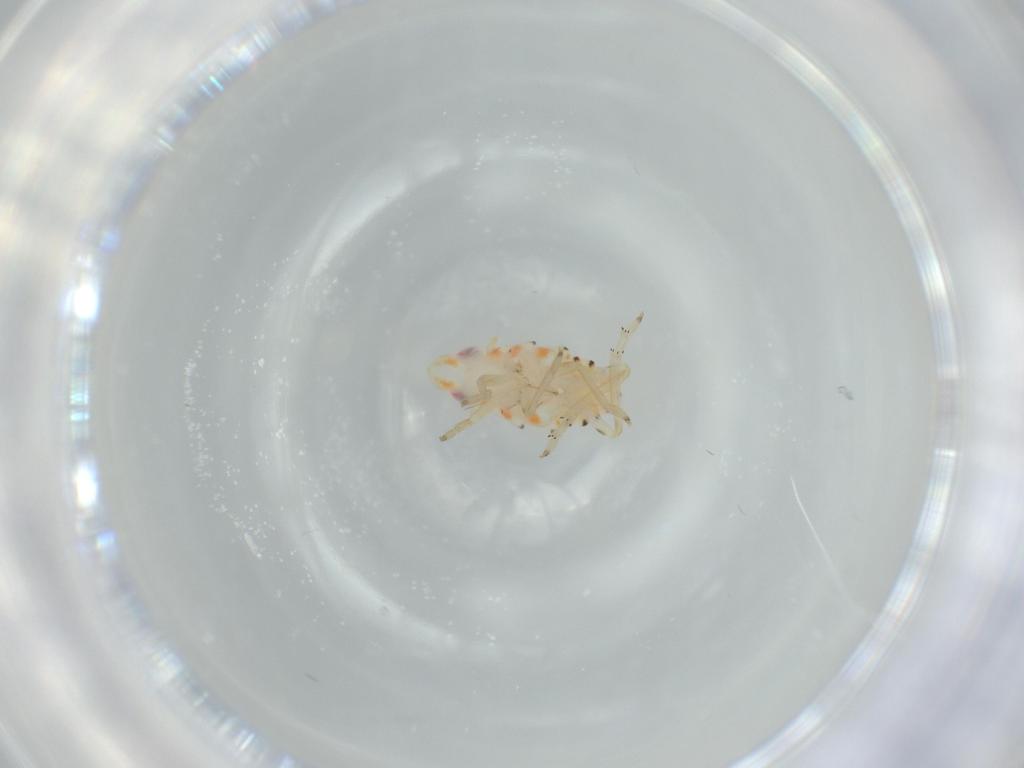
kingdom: Animalia
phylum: Arthropoda
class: Insecta
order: Hemiptera
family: Tropiduchidae
